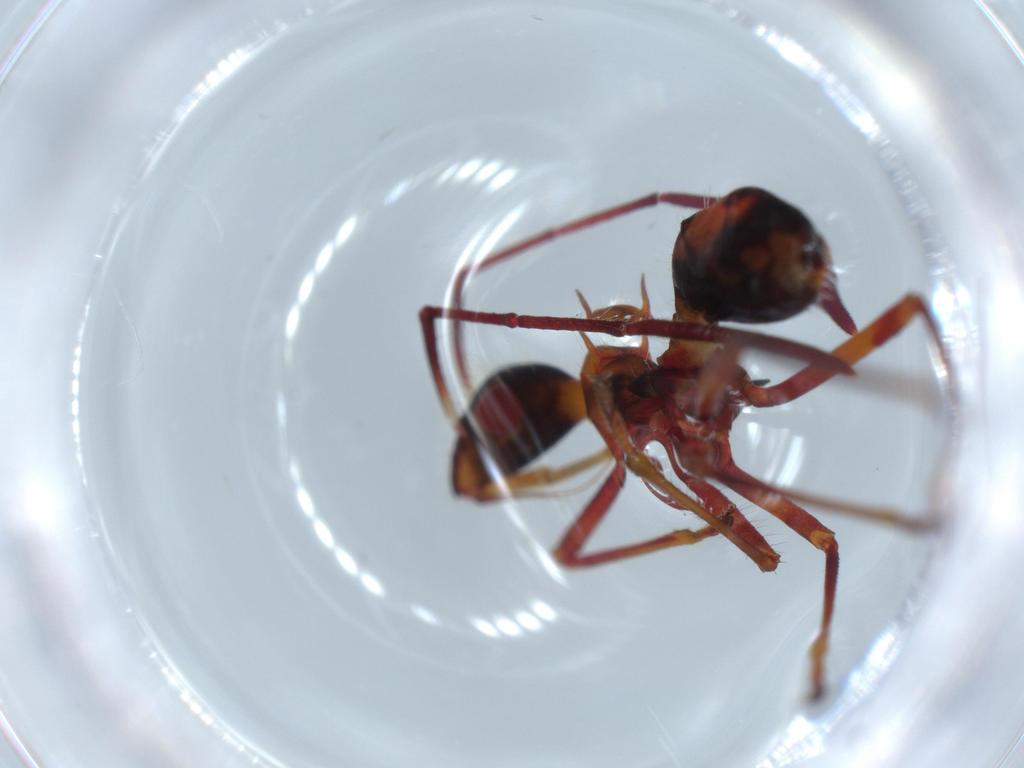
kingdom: Animalia
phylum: Arthropoda
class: Insecta
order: Hemiptera
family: Alydidae
